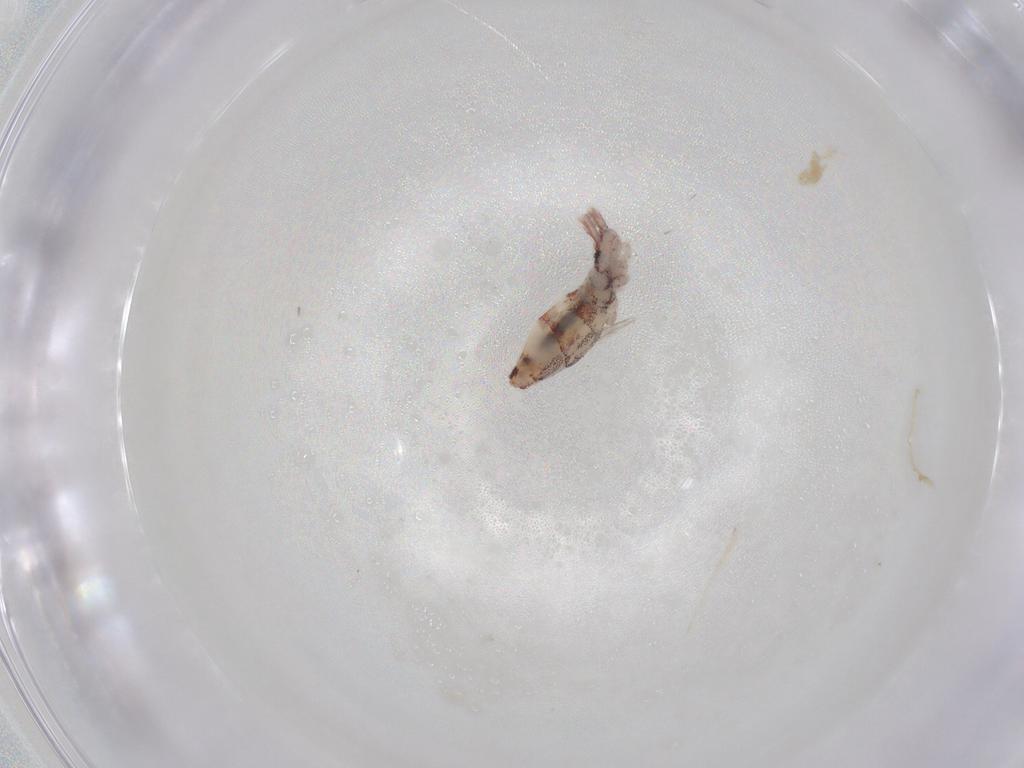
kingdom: Animalia
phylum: Arthropoda
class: Collembola
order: Entomobryomorpha
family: Entomobryidae
